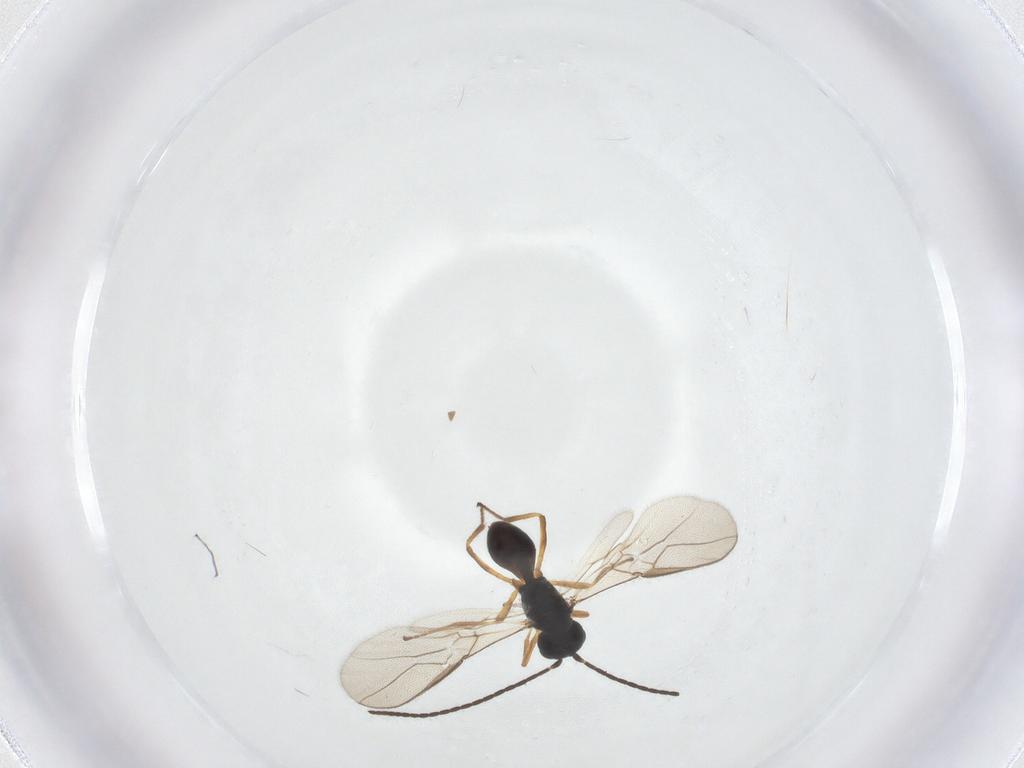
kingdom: Animalia
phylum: Arthropoda
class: Insecta
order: Hymenoptera
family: Braconidae
